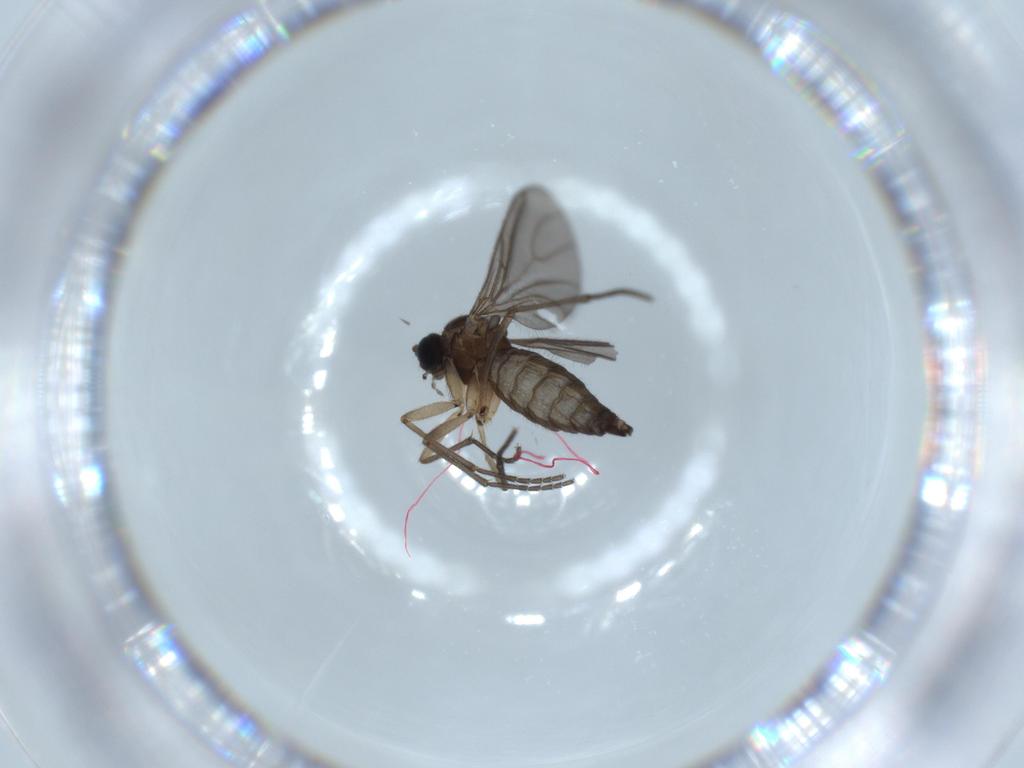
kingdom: Animalia
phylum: Arthropoda
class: Insecta
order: Diptera
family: Sciaridae
